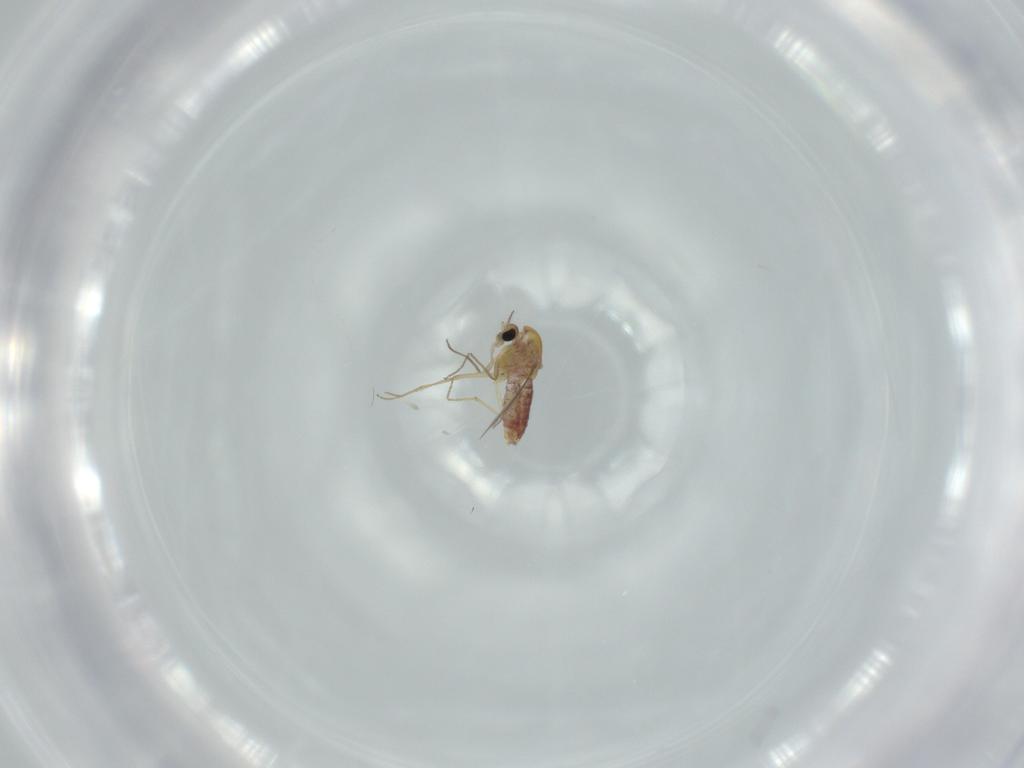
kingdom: Animalia
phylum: Arthropoda
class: Insecta
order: Diptera
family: Chironomidae
